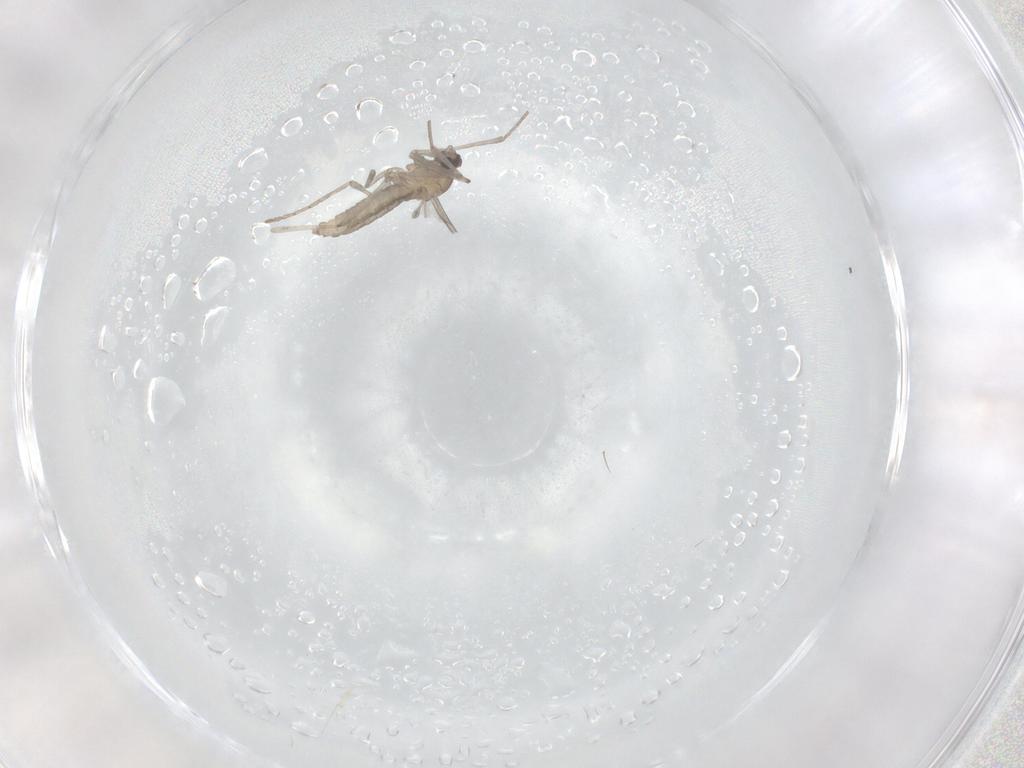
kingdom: Animalia
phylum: Arthropoda
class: Insecta
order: Diptera
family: Cecidomyiidae
